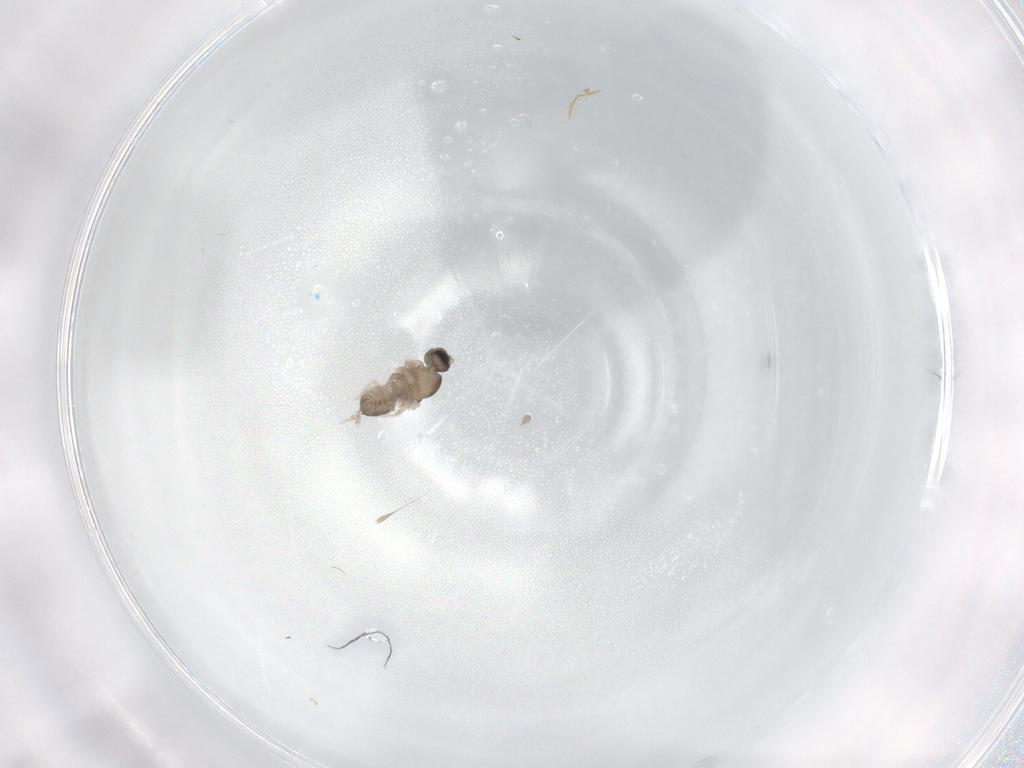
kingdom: Animalia
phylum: Arthropoda
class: Insecta
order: Diptera
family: Cecidomyiidae
